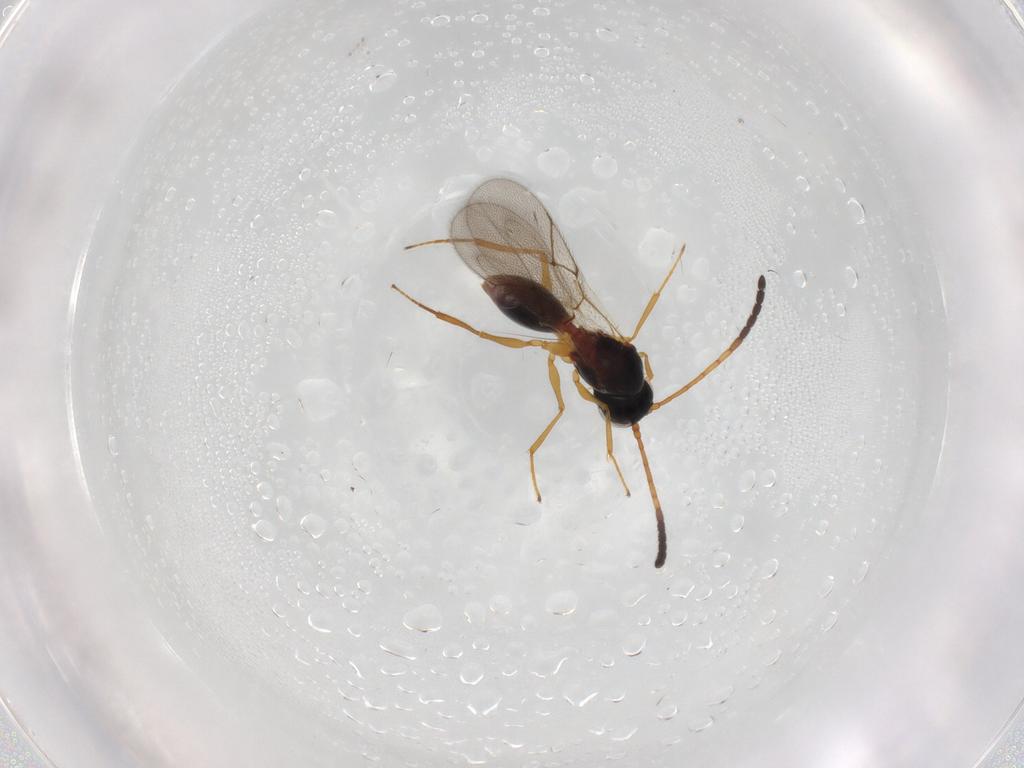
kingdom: Animalia
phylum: Arthropoda
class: Insecta
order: Hymenoptera
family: Figitidae
